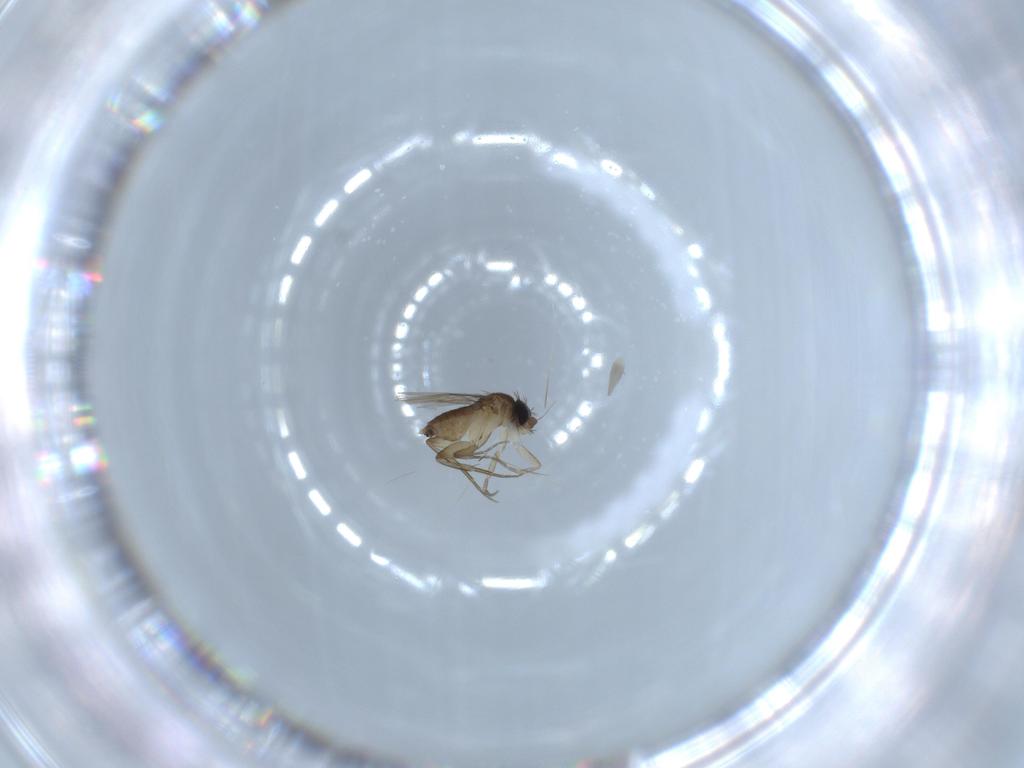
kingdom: Animalia
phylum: Arthropoda
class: Insecta
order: Diptera
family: Phoridae
